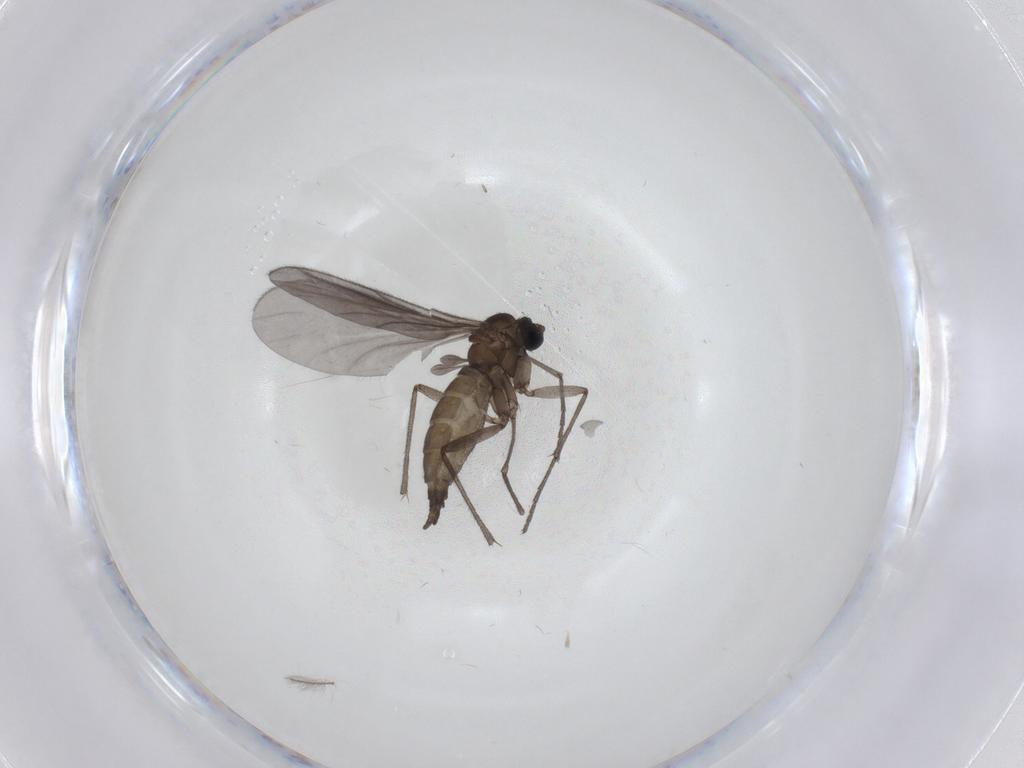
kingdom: Animalia
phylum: Arthropoda
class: Insecta
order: Diptera
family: Sciaridae
